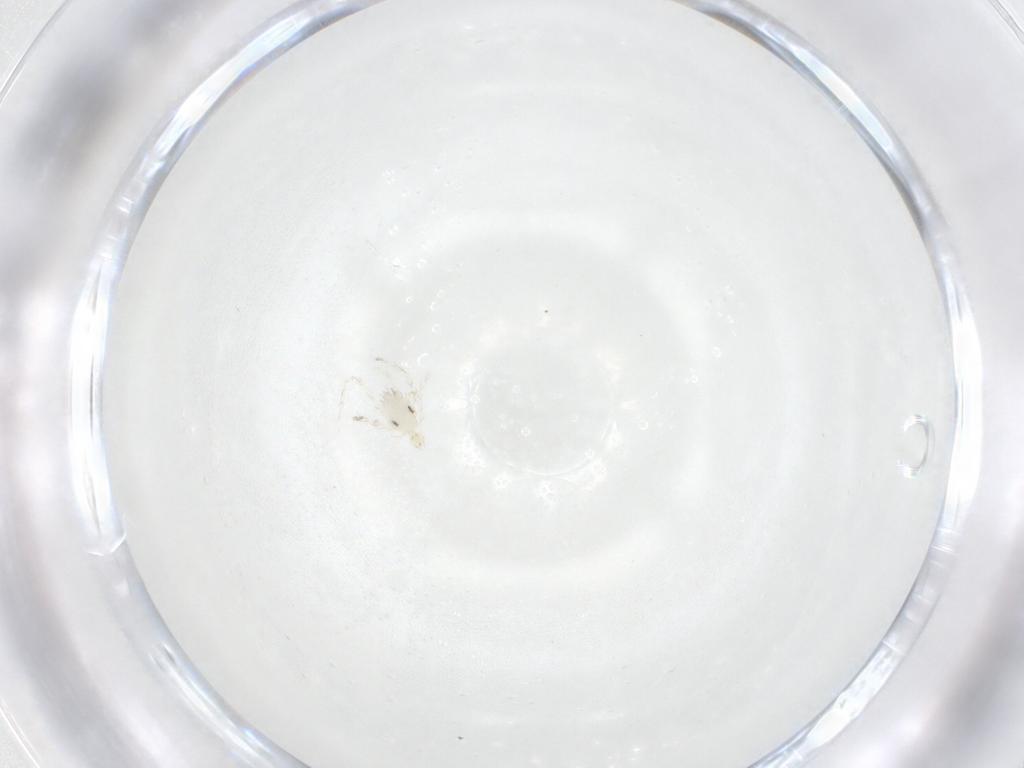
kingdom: Animalia
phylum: Arthropoda
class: Arachnida
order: Trombidiformes
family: Erythraeidae
